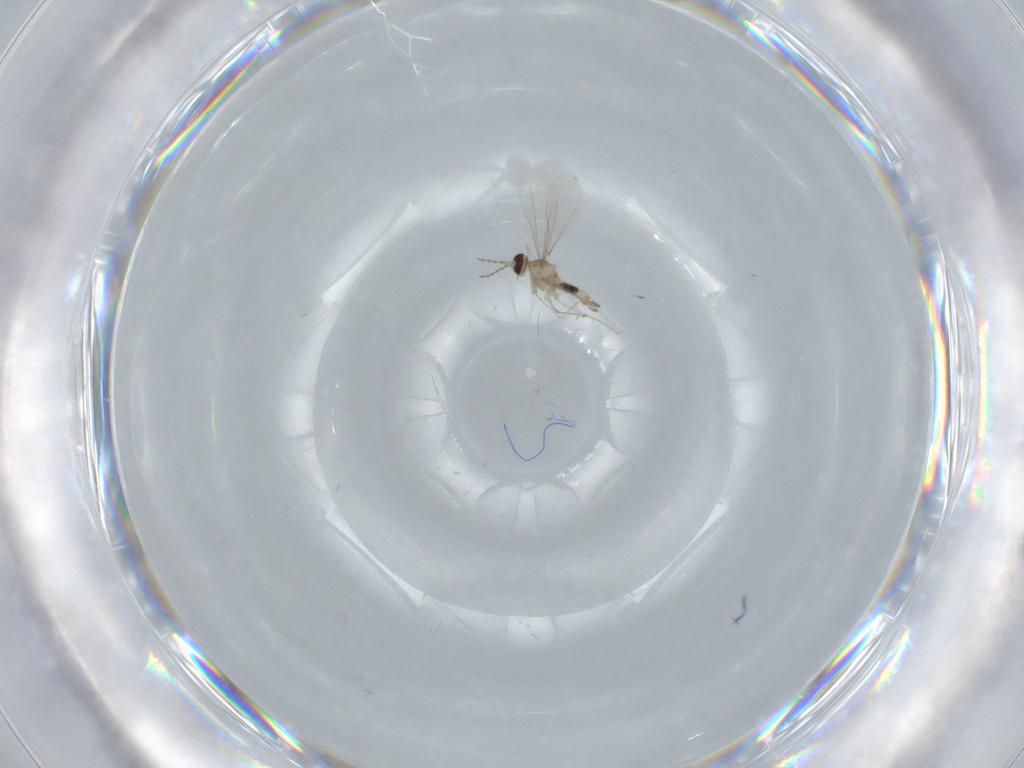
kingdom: Animalia
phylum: Arthropoda
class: Insecta
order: Diptera
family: Cecidomyiidae
